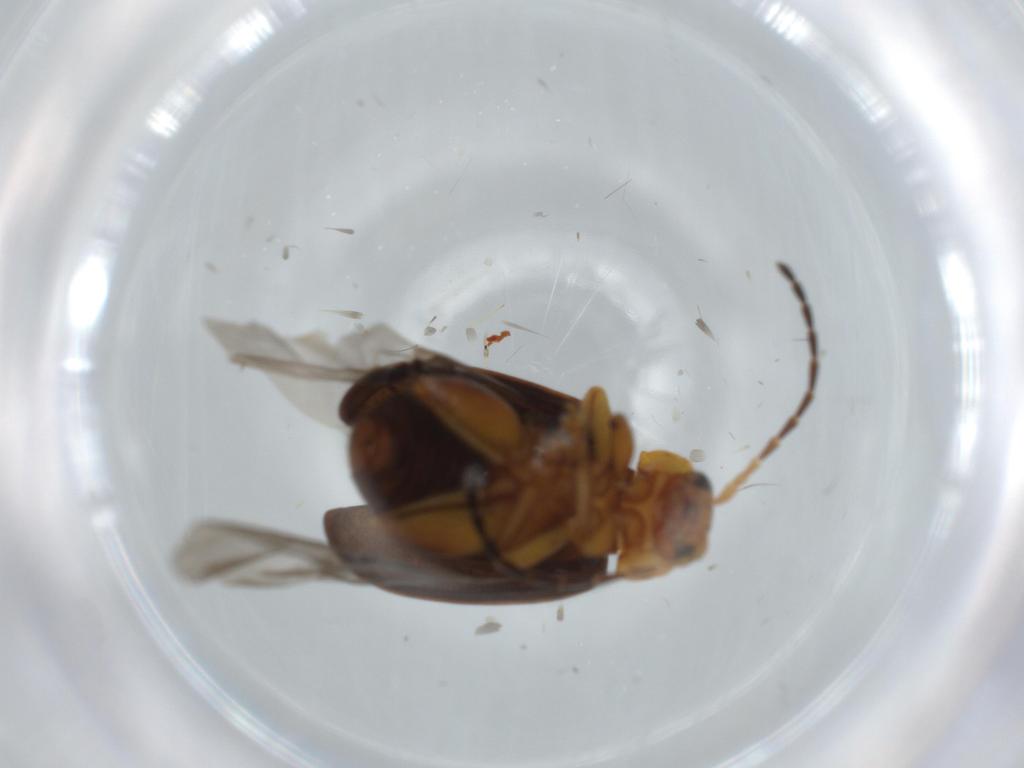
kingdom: Animalia
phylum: Arthropoda
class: Insecta
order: Coleoptera
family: Chrysomelidae
